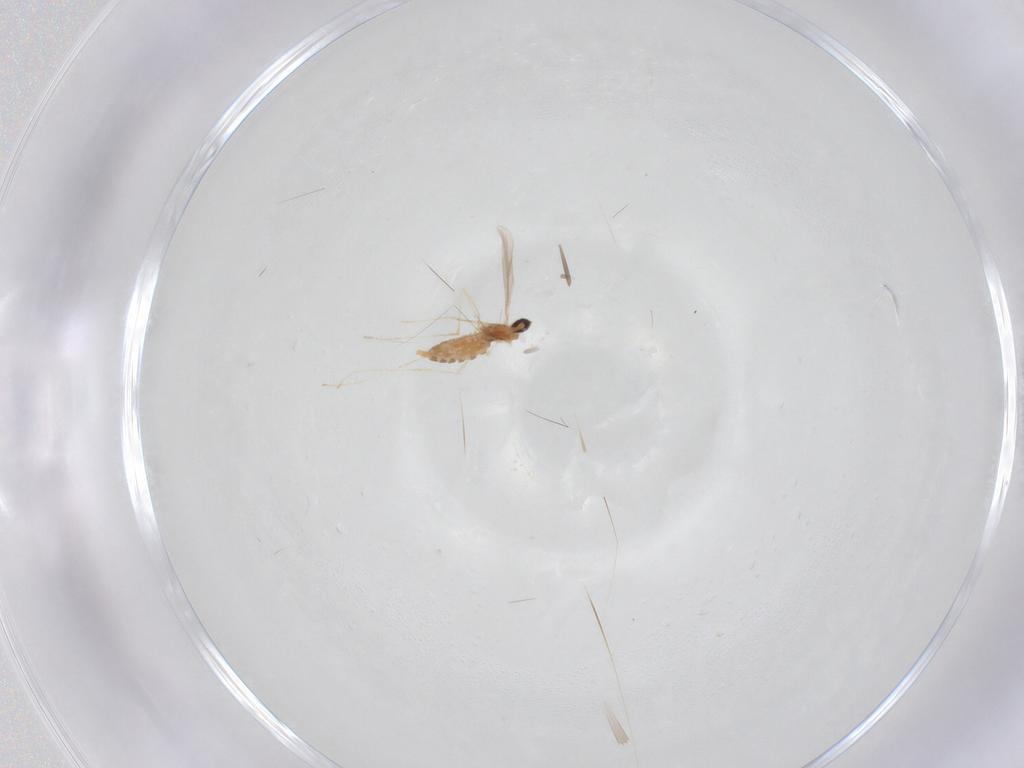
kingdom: Animalia
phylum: Arthropoda
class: Insecta
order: Diptera
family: Cecidomyiidae
